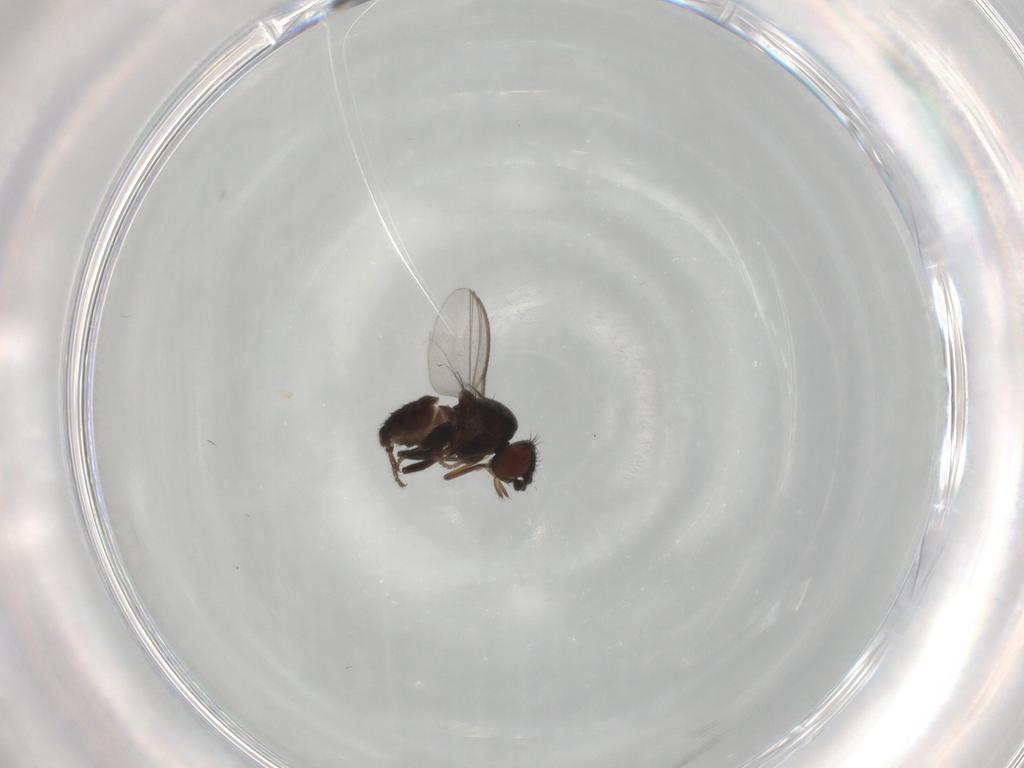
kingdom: Animalia
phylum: Arthropoda
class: Insecta
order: Diptera
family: Milichiidae
